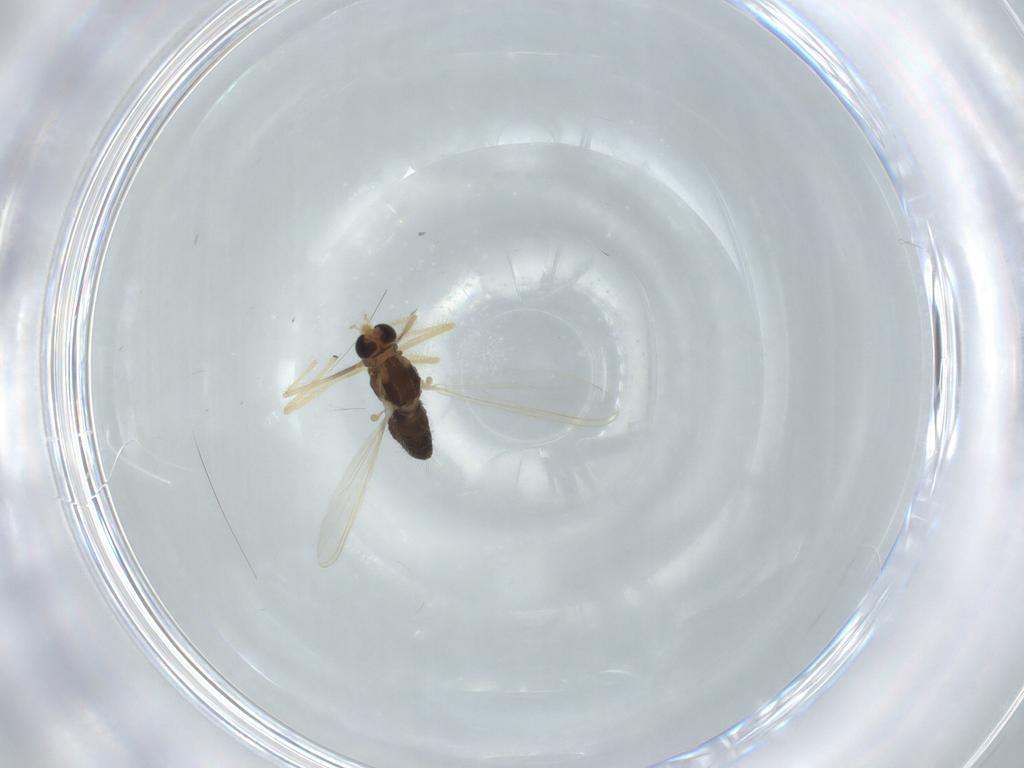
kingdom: Animalia
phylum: Arthropoda
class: Insecta
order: Diptera
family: Chironomidae
